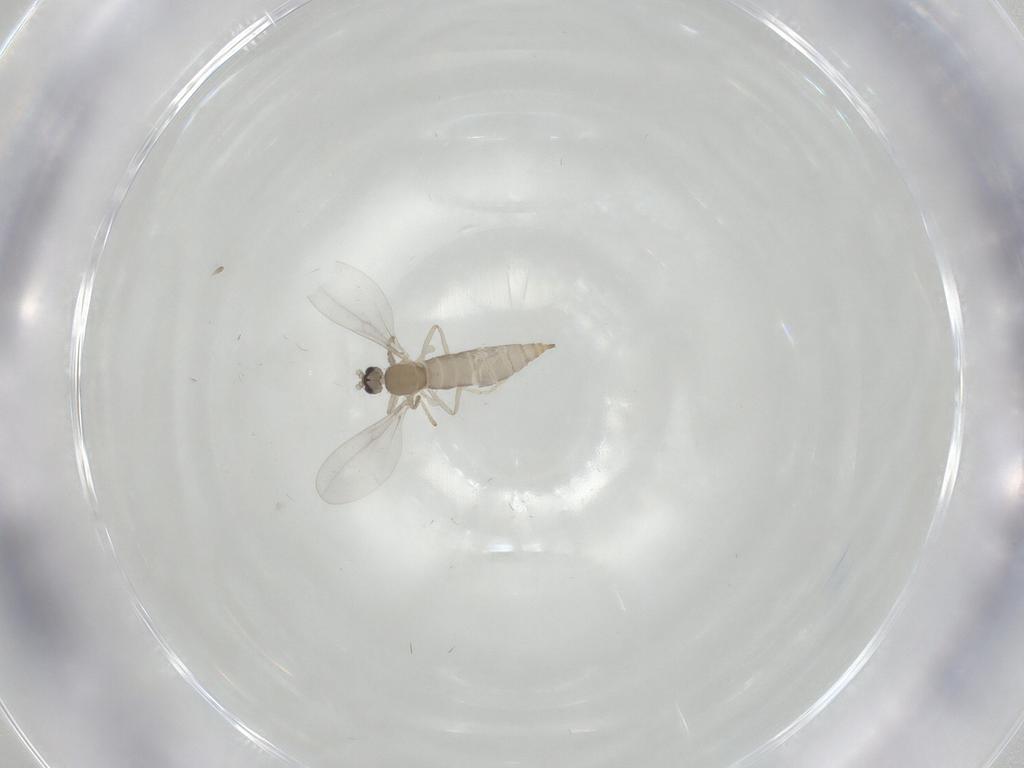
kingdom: Animalia
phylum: Arthropoda
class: Insecta
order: Diptera
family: Cecidomyiidae
